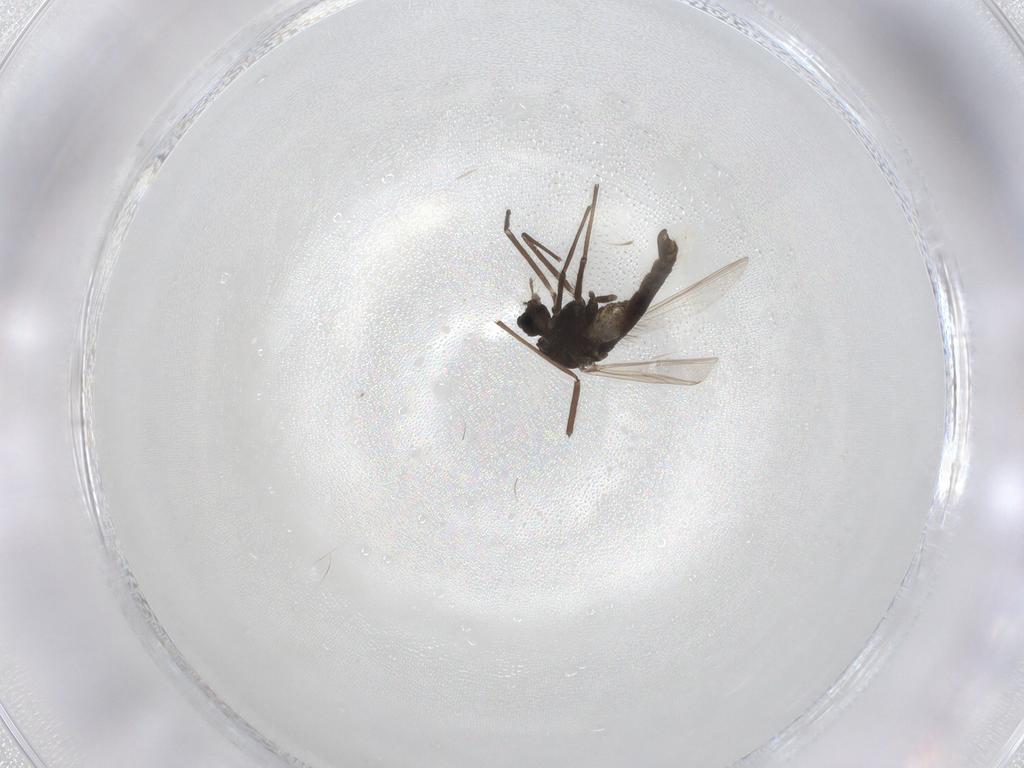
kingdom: Animalia
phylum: Arthropoda
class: Insecta
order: Diptera
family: Chironomidae
